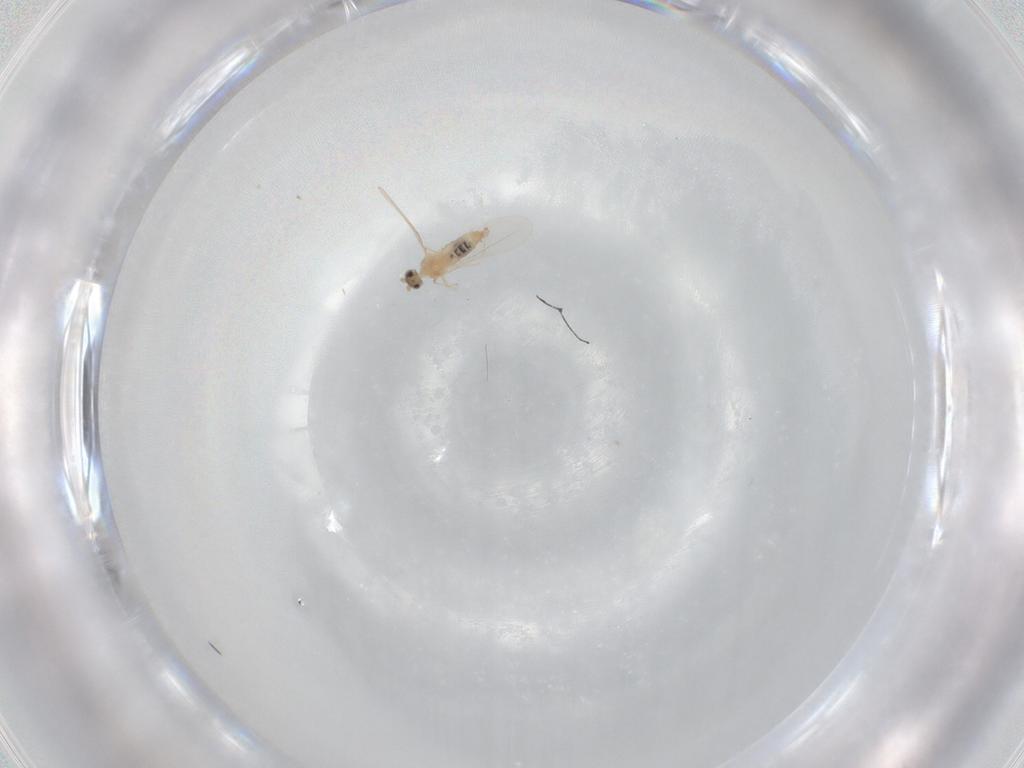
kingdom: Animalia
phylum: Arthropoda
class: Insecta
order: Diptera
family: Cecidomyiidae
